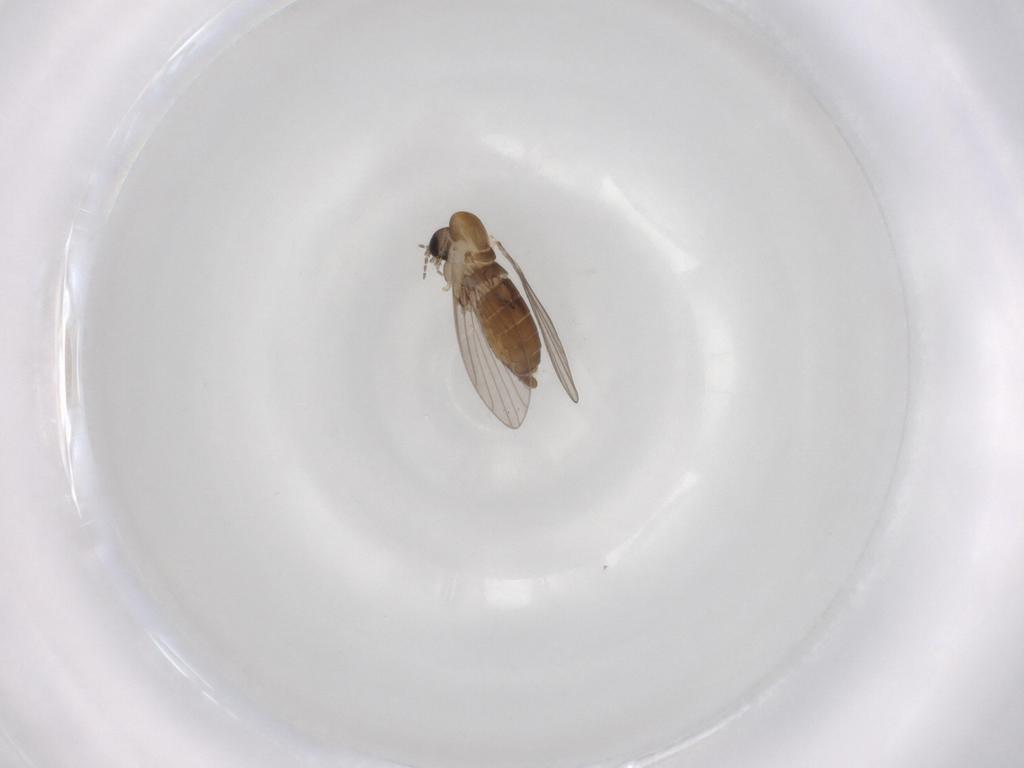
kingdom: Animalia
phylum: Arthropoda
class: Insecta
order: Diptera
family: Psychodidae
